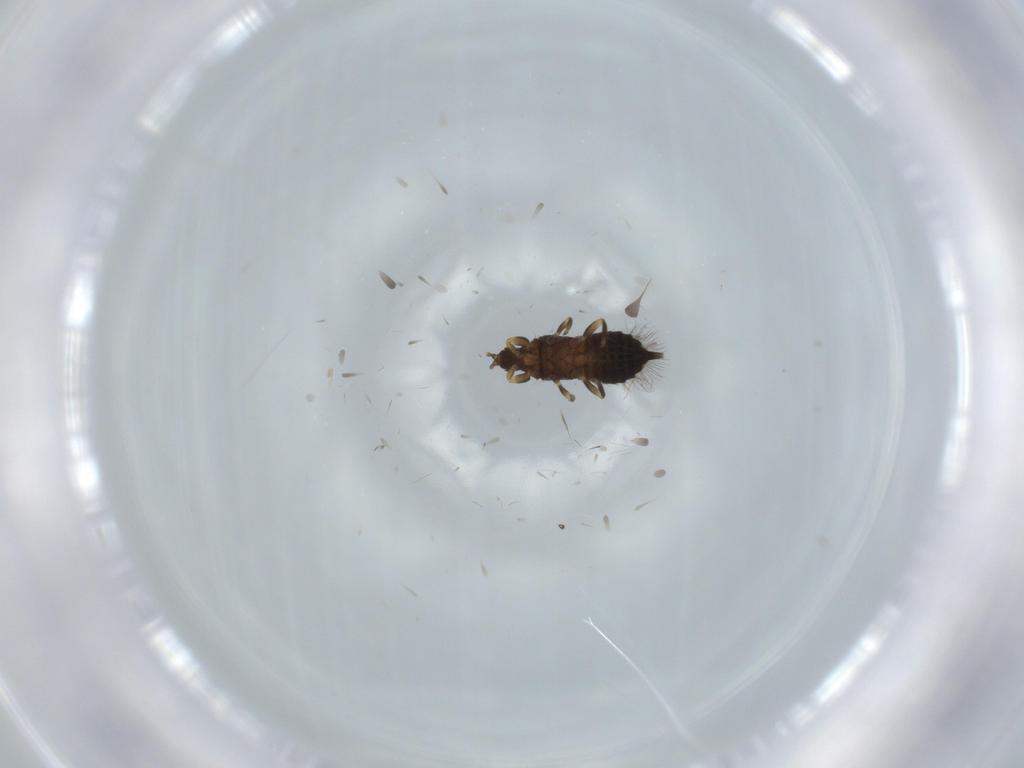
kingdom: Animalia
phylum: Arthropoda
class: Insecta
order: Thysanoptera
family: Phlaeothripidae
